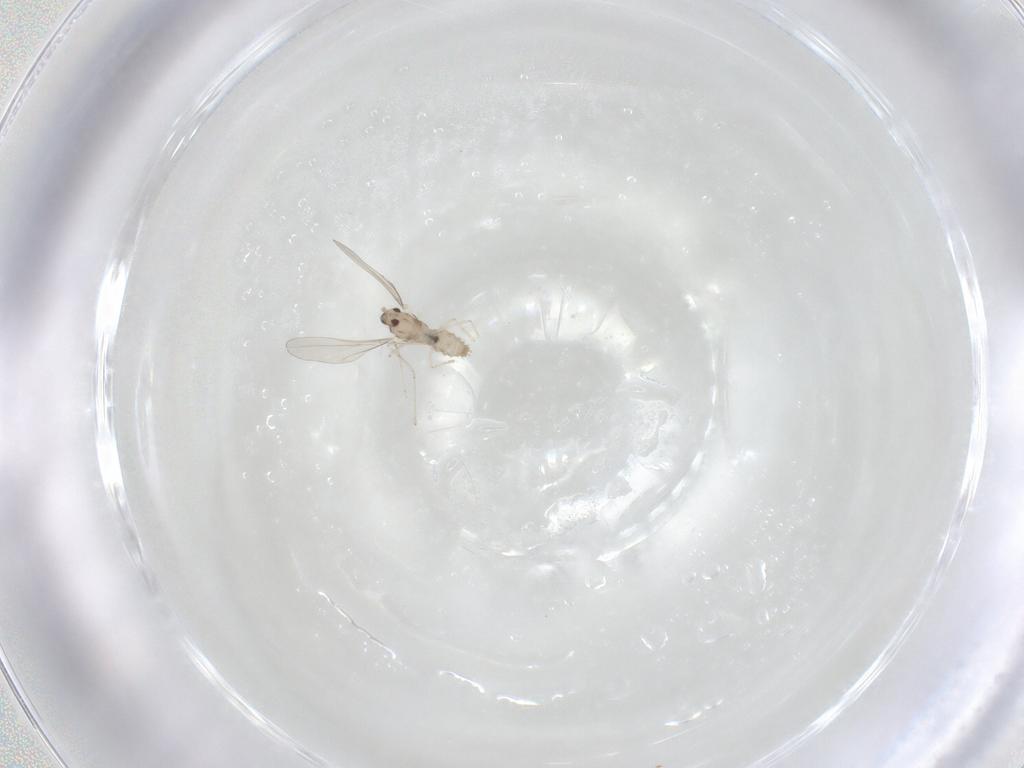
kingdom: Animalia
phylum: Arthropoda
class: Insecta
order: Diptera
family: Cecidomyiidae
